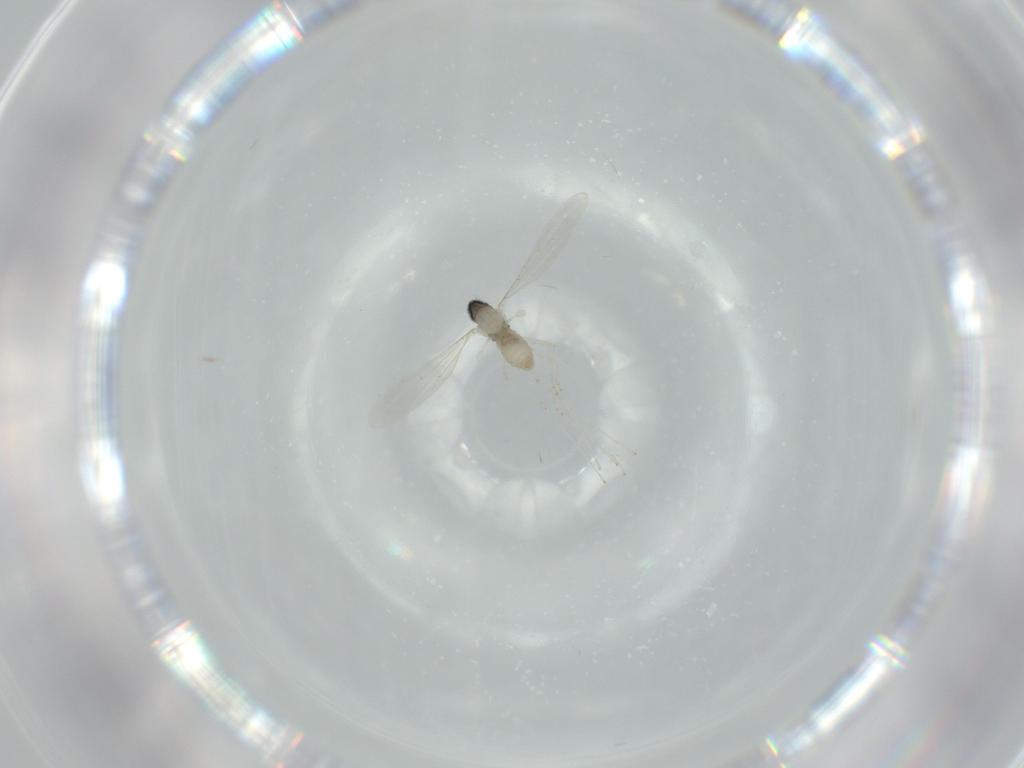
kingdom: Animalia
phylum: Arthropoda
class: Insecta
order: Diptera
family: Cecidomyiidae
